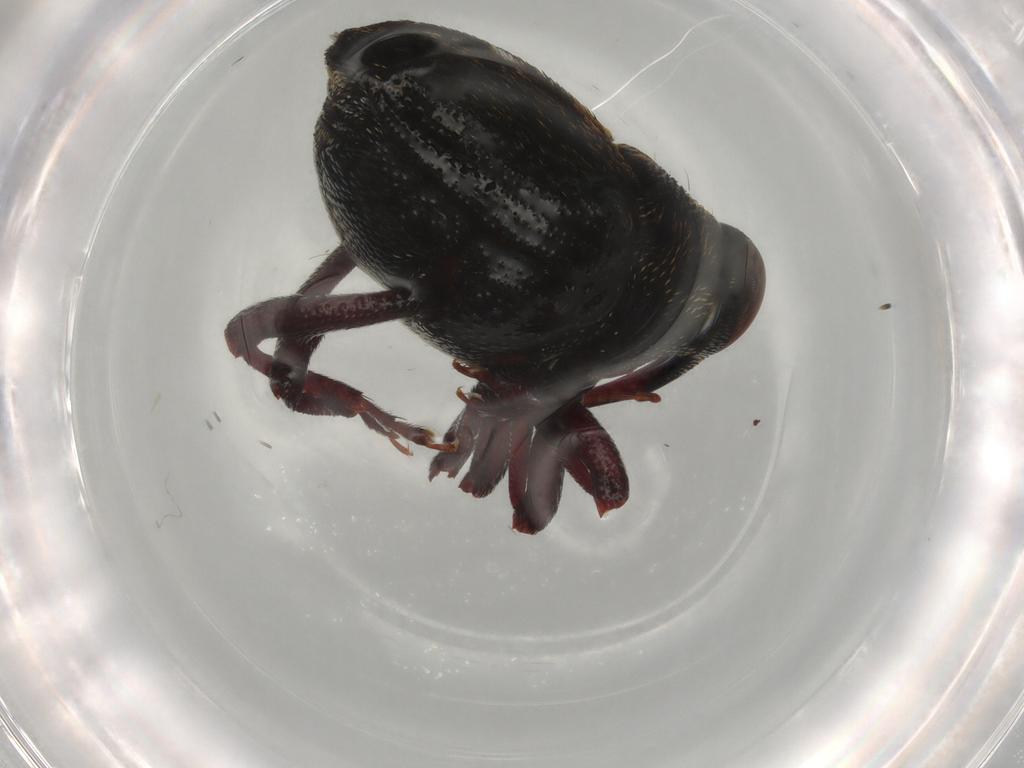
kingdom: Animalia
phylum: Arthropoda
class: Insecta
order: Coleoptera
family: Curculionidae
